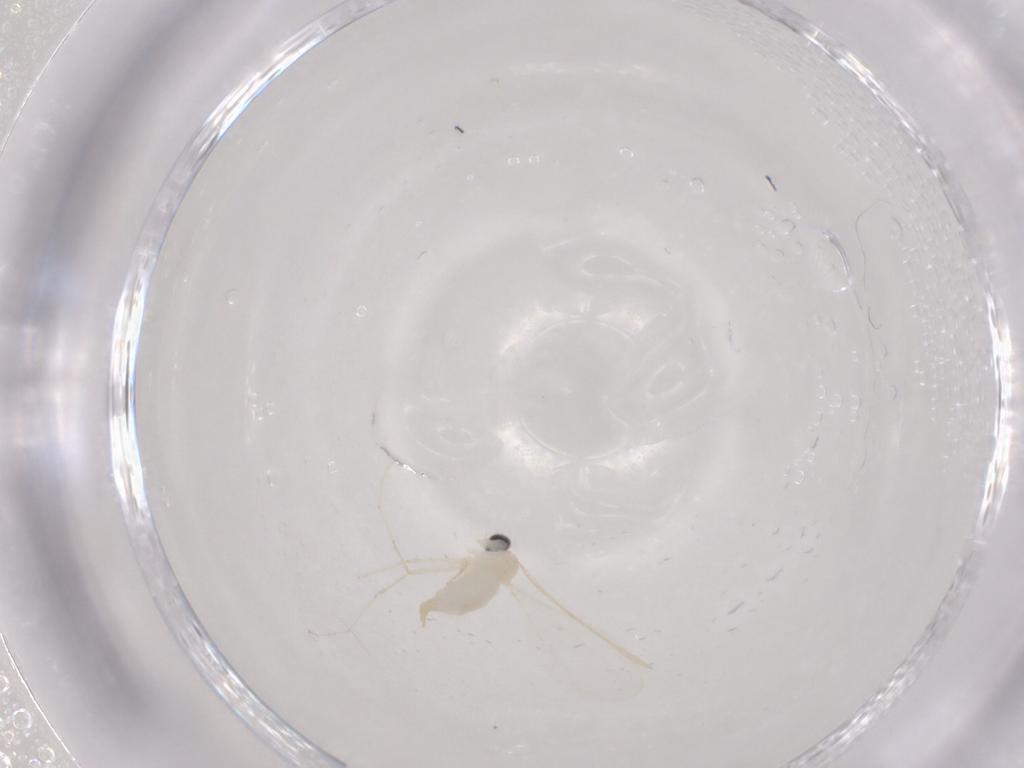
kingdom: Animalia
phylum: Arthropoda
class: Insecta
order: Diptera
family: Cecidomyiidae
